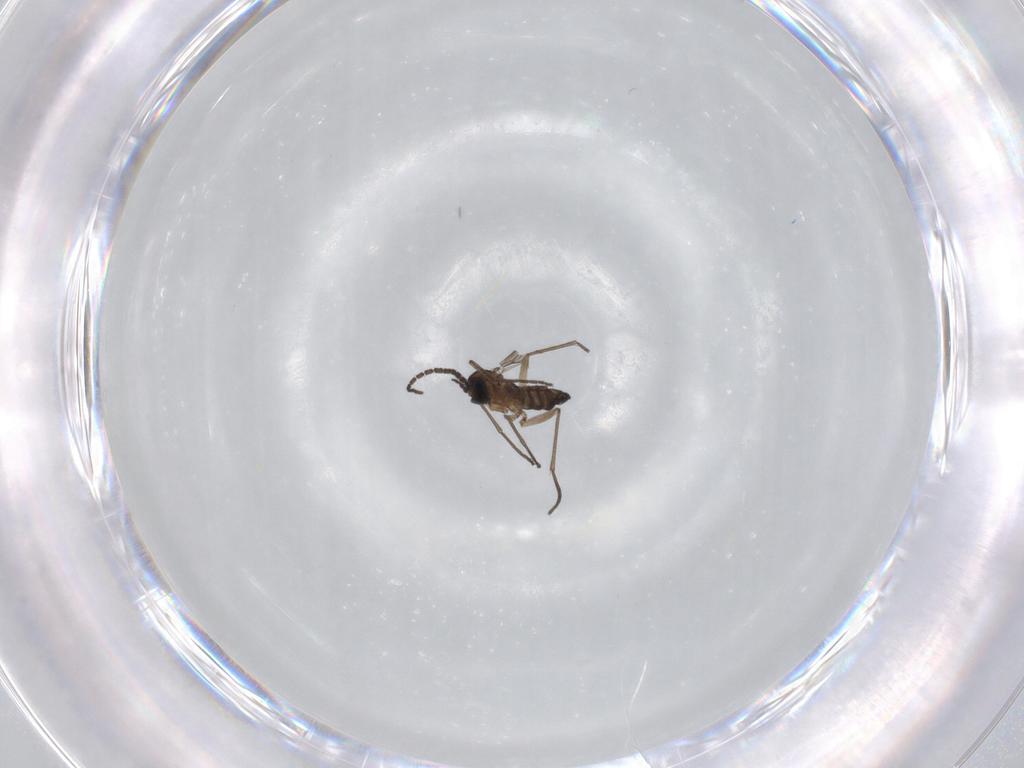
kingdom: Animalia
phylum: Arthropoda
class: Insecta
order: Diptera
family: Sciaridae
